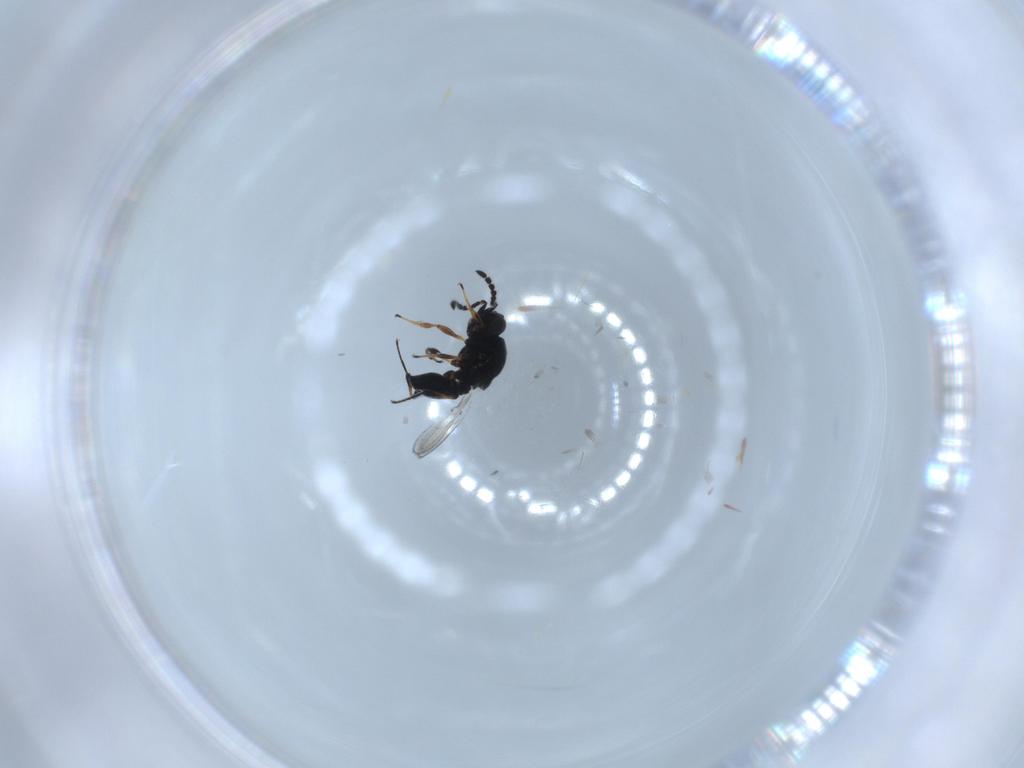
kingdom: Animalia
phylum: Arthropoda
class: Insecta
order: Hymenoptera
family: Platygastridae
